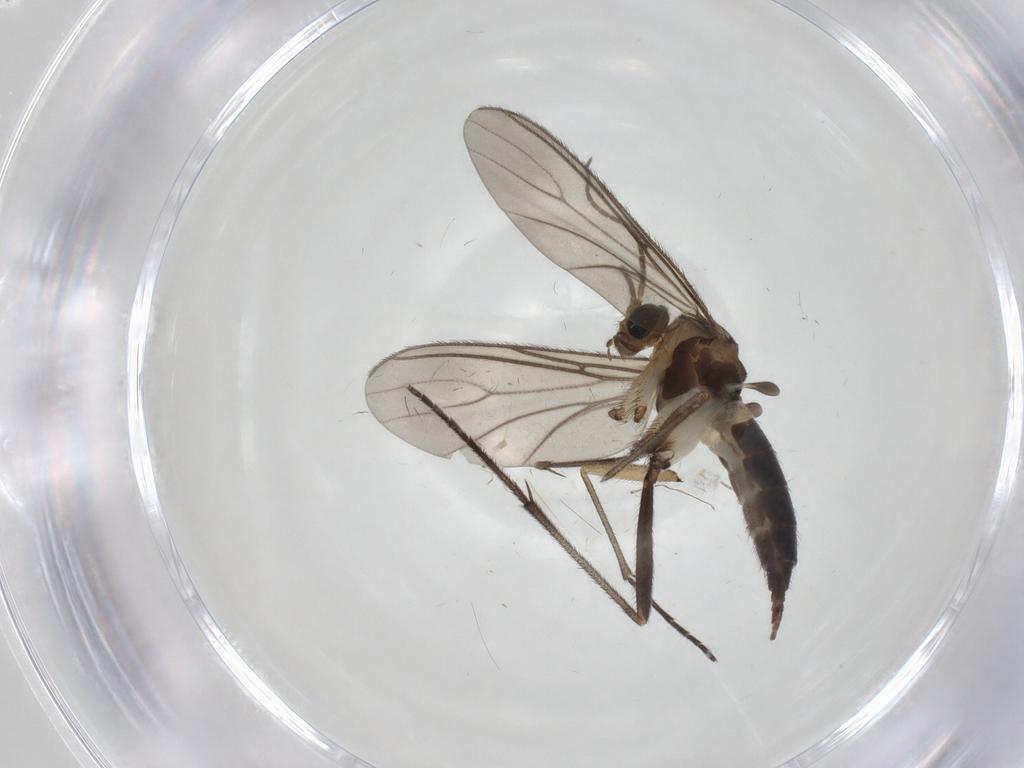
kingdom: Animalia
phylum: Arthropoda
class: Insecta
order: Diptera
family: Sciaridae
